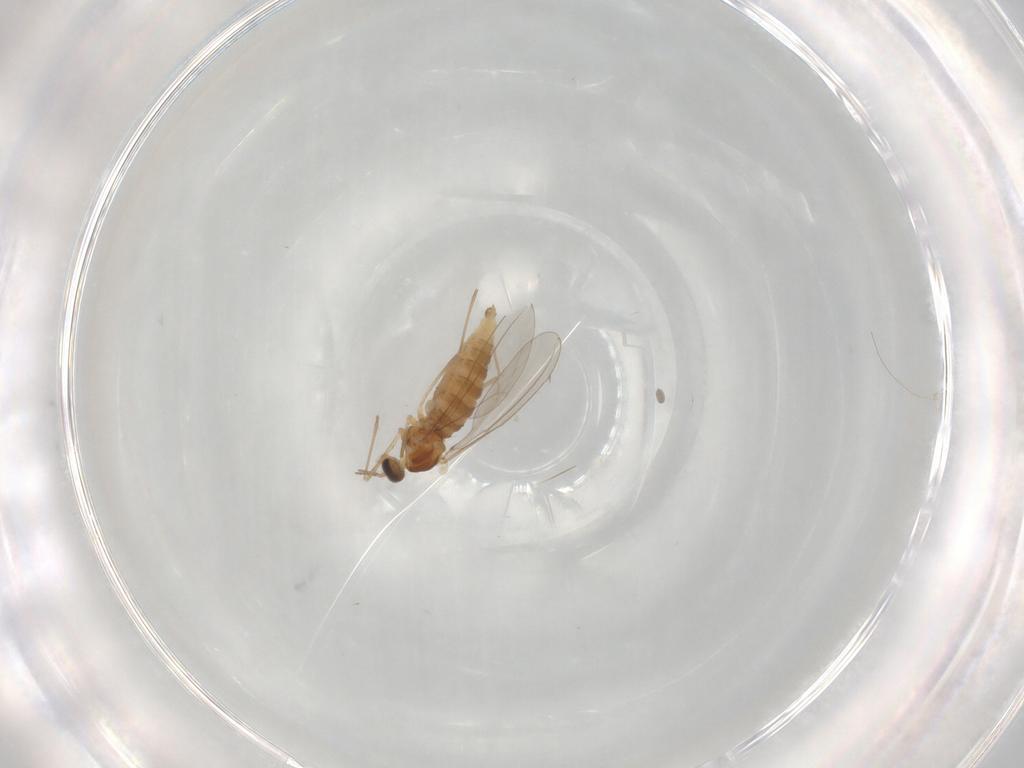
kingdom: Animalia
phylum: Arthropoda
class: Insecta
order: Diptera
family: Cecidomyiidae
